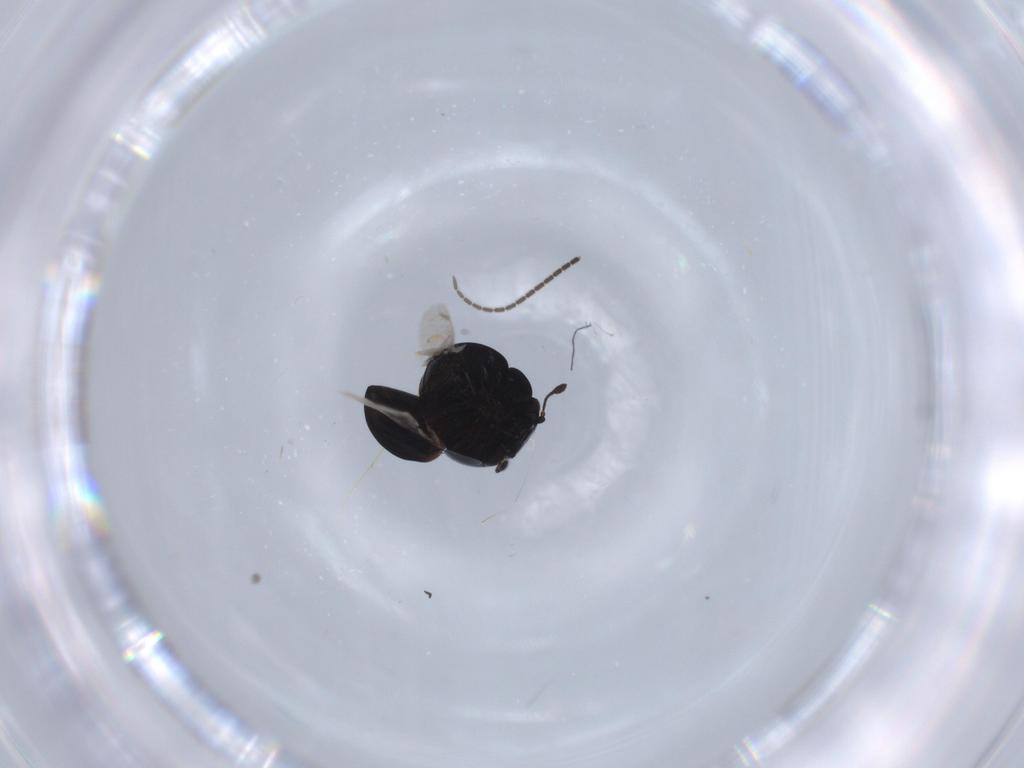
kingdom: Animalia
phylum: Arthropoda
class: Insecta
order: Coleoptera
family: Cybocephalidae
